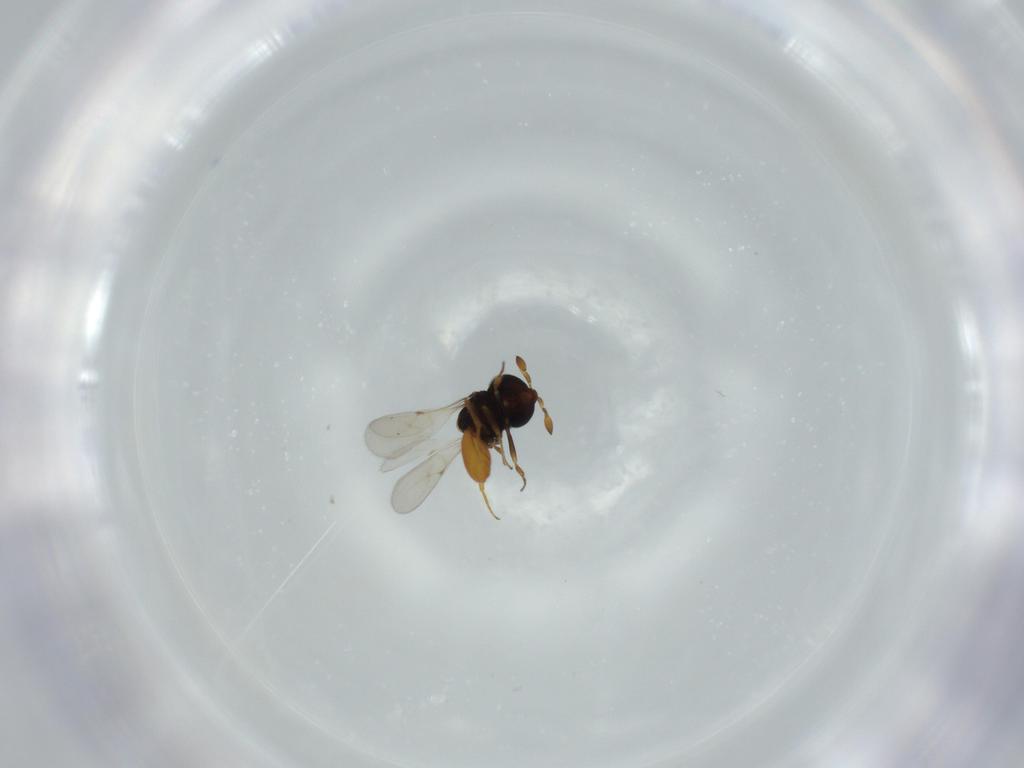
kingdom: Animalia
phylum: Arthropoda
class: Insecta
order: Hymenoptera
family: Scelionidae
